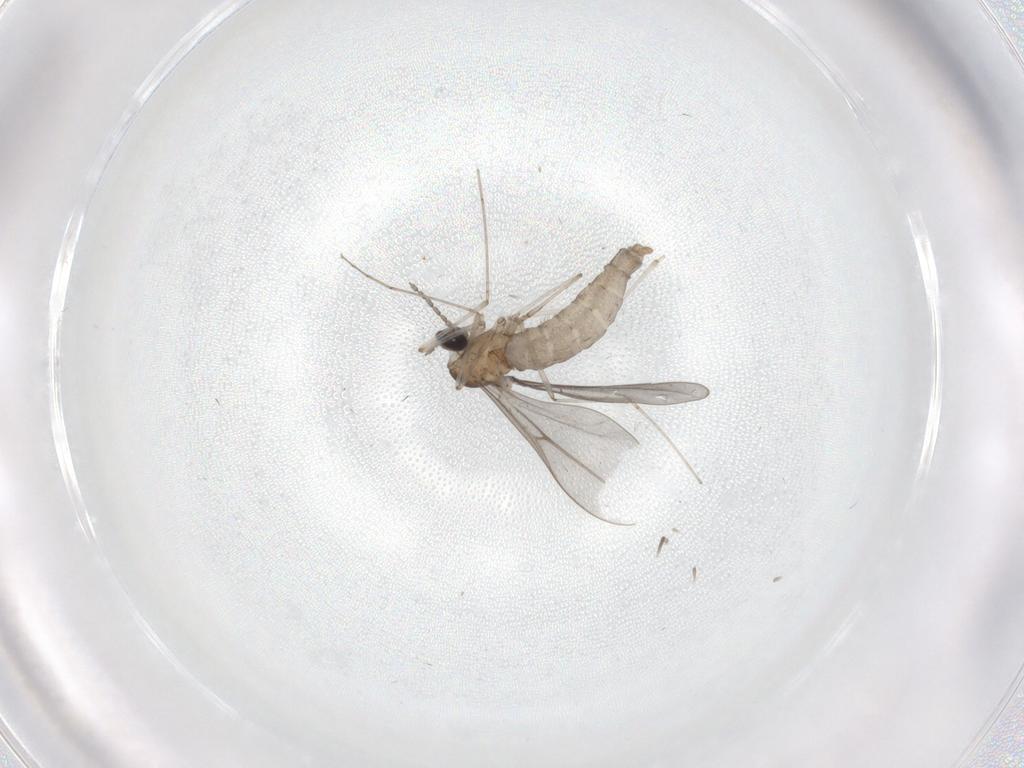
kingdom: Animalia
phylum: Arthropoda
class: Insecta
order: Diptera
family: Cecidomyiidae
